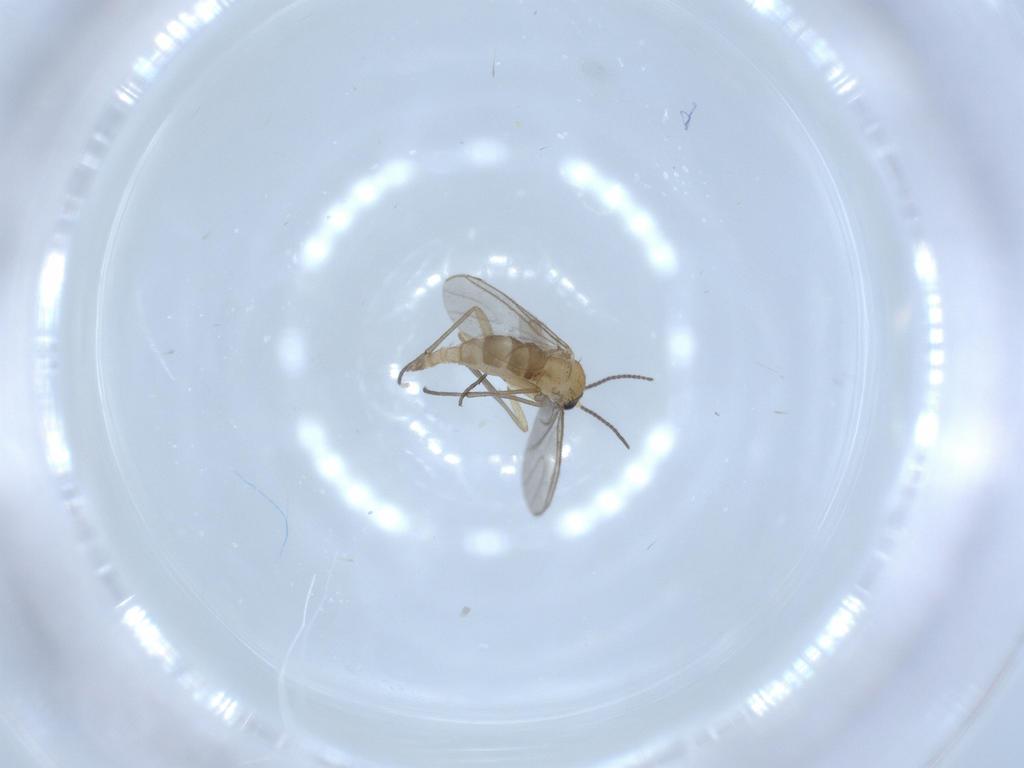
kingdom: Animalia
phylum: Arthropoda
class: Insecta
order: Diptera
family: Sciaridae
